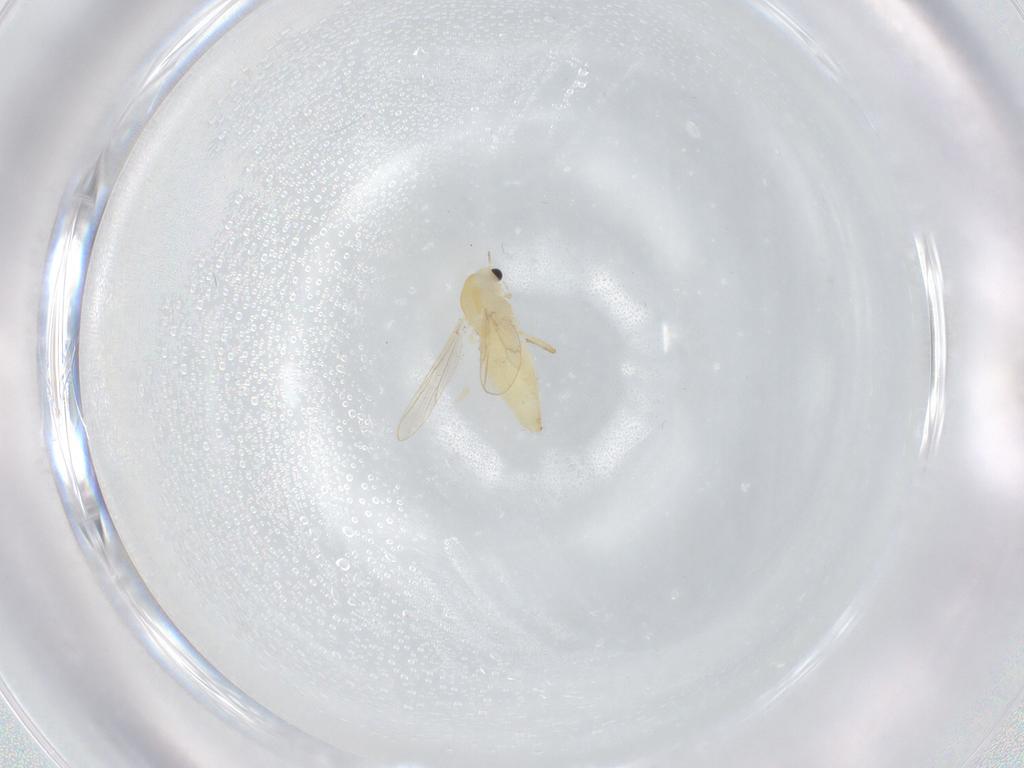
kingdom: Animalia
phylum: Arthropoda
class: Insecta
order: Diptera
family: Chironomidae
